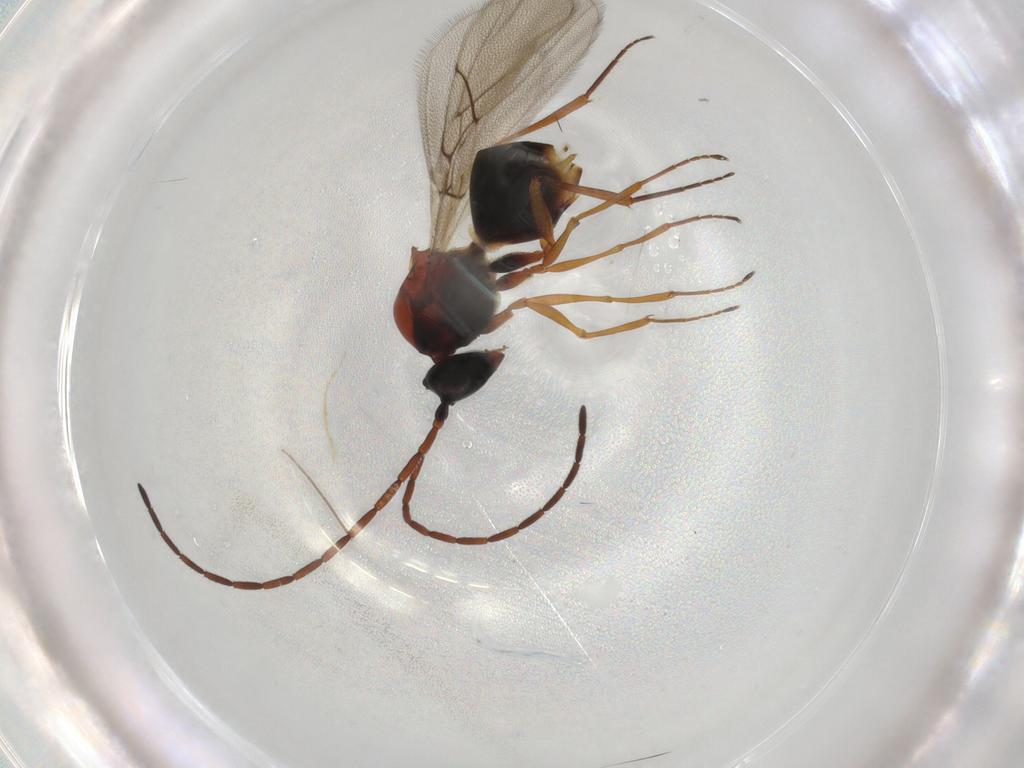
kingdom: Animalia
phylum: Arthropoda
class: Insecta
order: Hymenoptera
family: Figitidae
